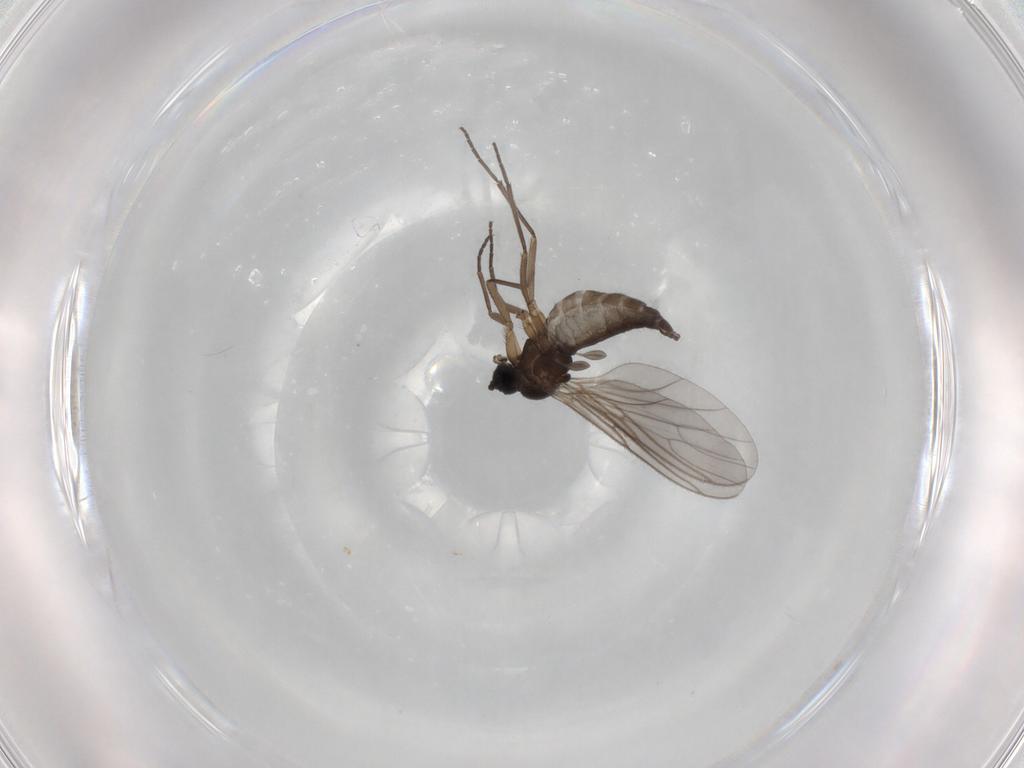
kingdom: Animalia
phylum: Arthropoda
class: Insecta
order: Diptera
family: Sciaridae
